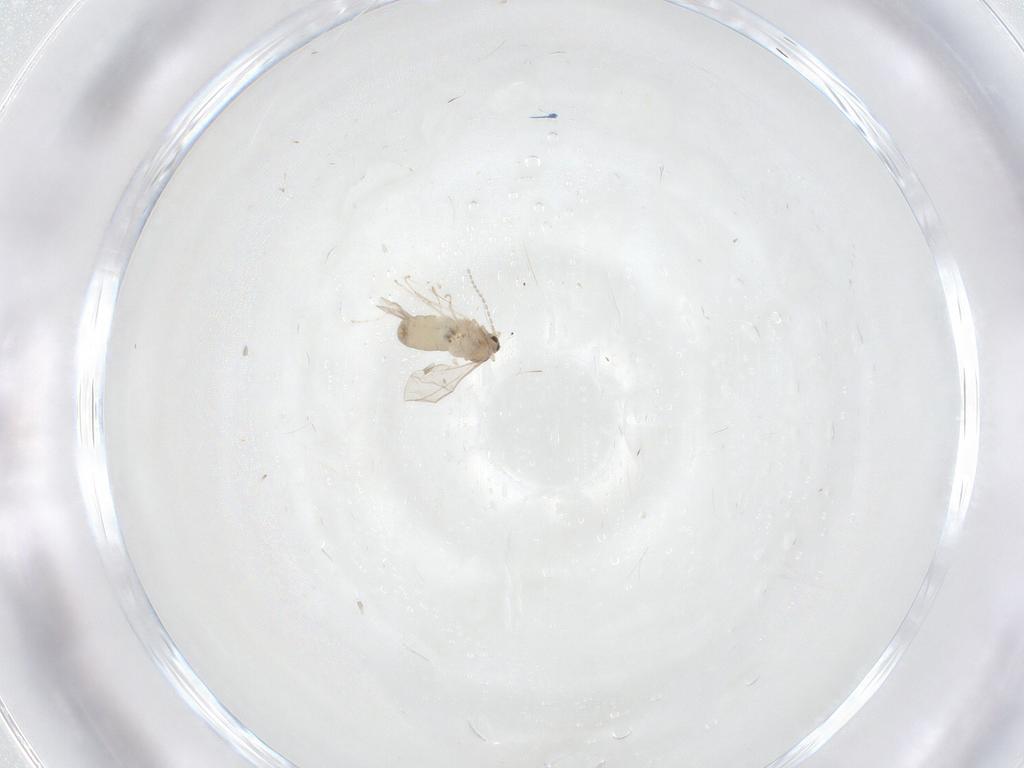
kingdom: Animalia
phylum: Arthropoda
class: Insecta
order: Diptera
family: Cecidomyiidae
